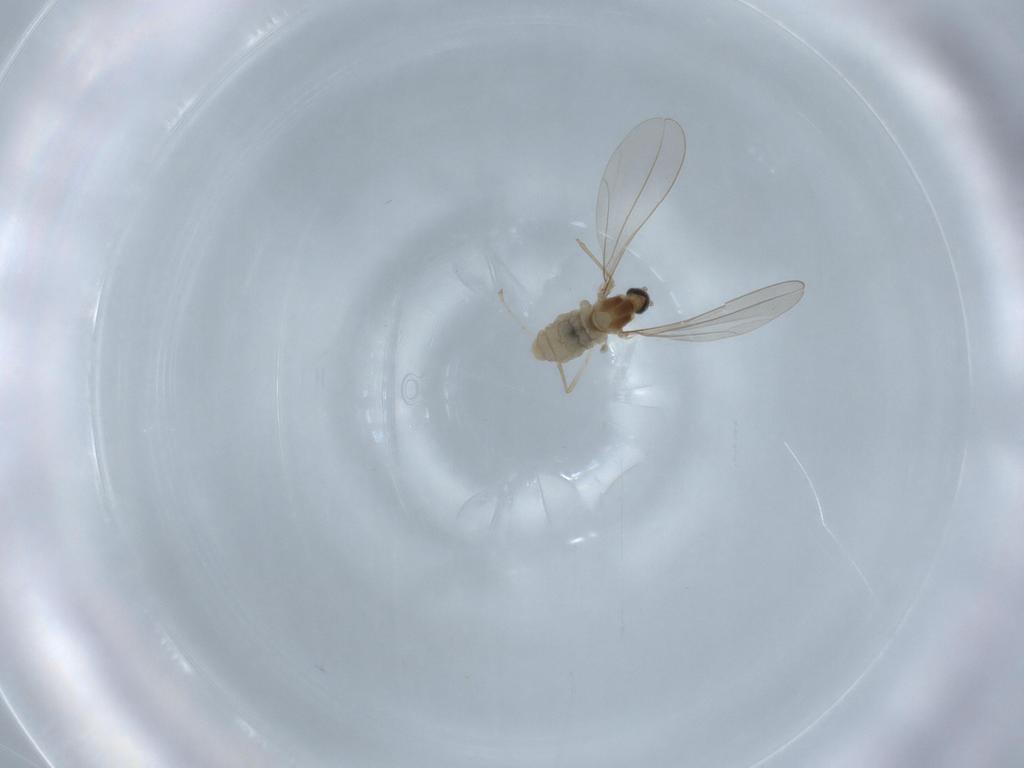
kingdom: Animalia
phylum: Arthropoda
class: Insecta
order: Diptera
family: Cecidomyiidae
